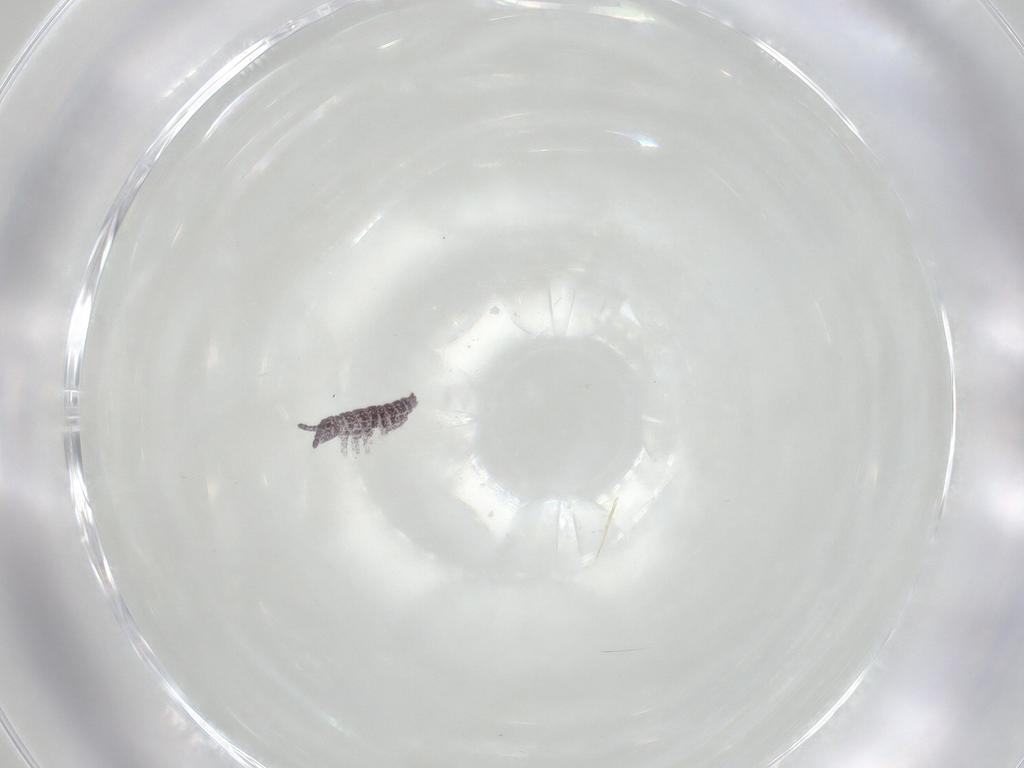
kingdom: Animalia
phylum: Arthropoda
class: Collembola
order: Poduromorpha
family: Hypogastruridae
